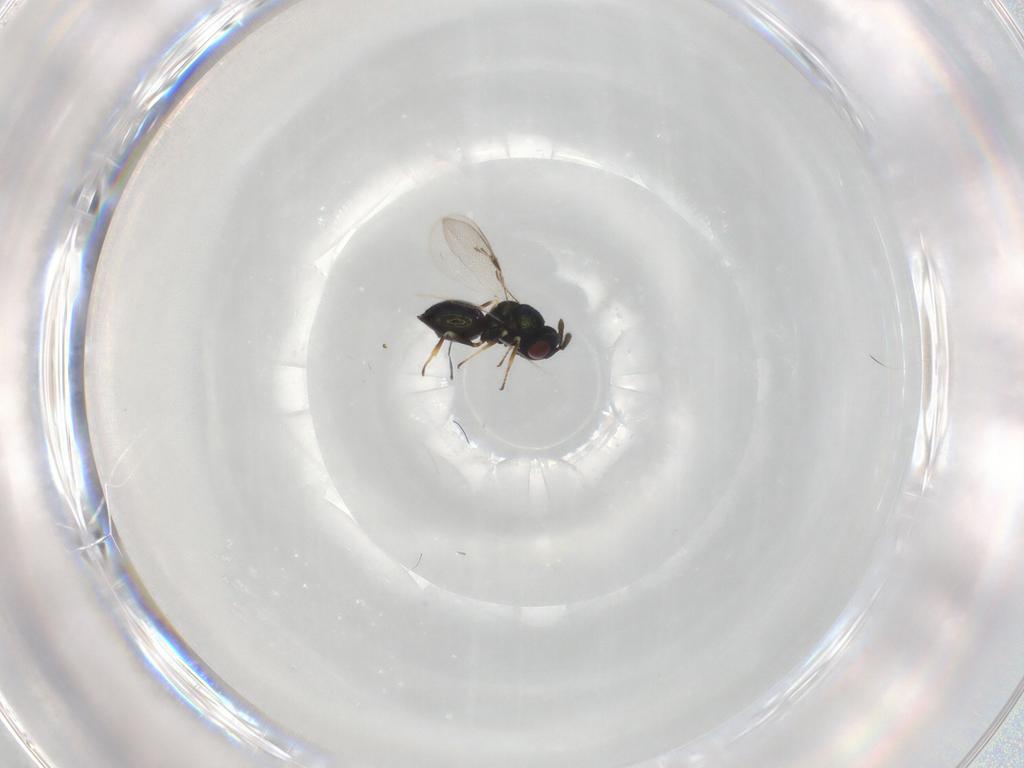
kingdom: Animalia
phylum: Arthropoda
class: Insecta
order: Hymenoptera
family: Pteromalidae
